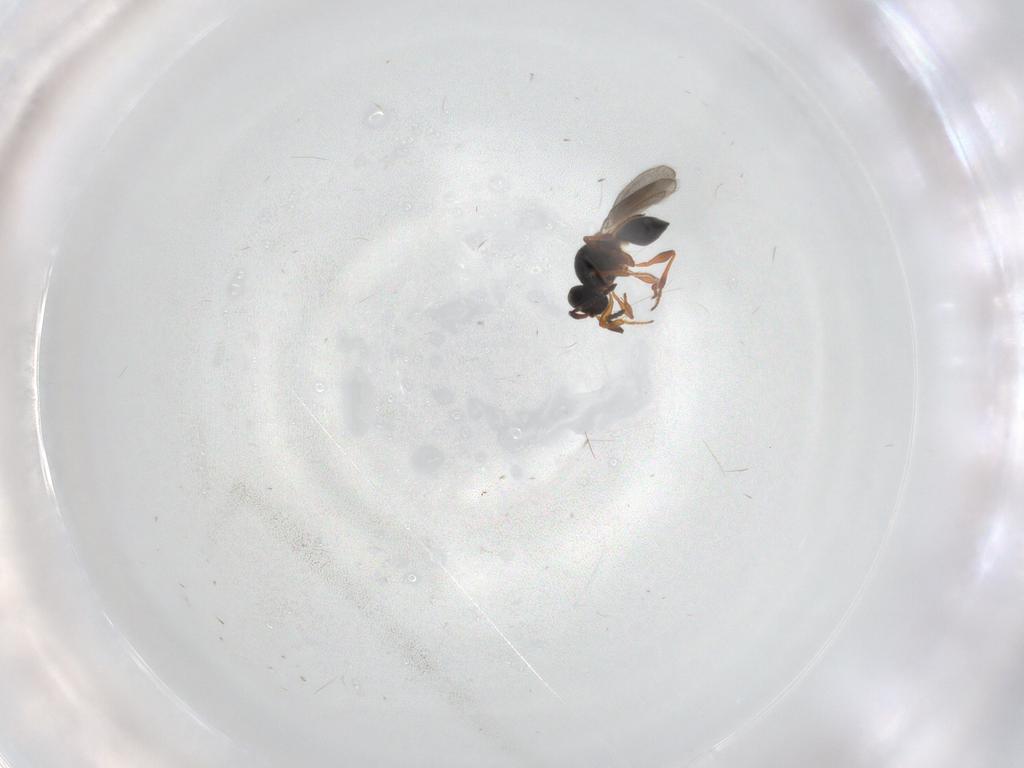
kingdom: Animalia
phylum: Arthropoda
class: Insecta
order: Hymenoptera
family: Platygastridae
